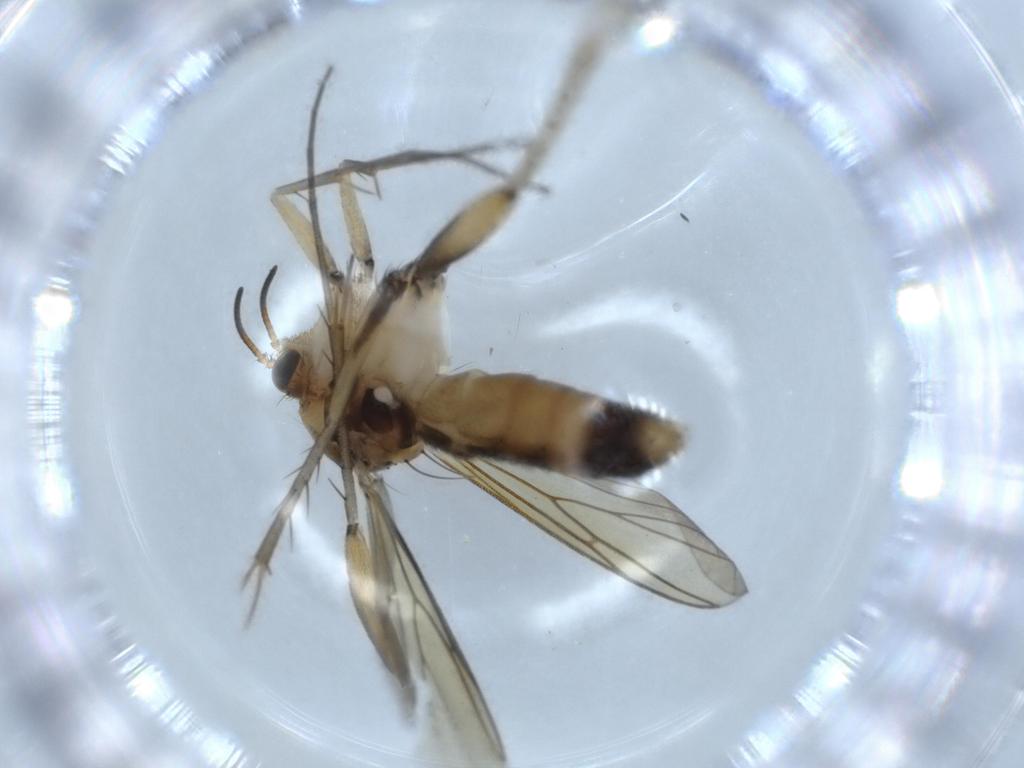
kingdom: Animalia
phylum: Arthropoda
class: Insecta
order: Diptera
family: Mycetophilidae
